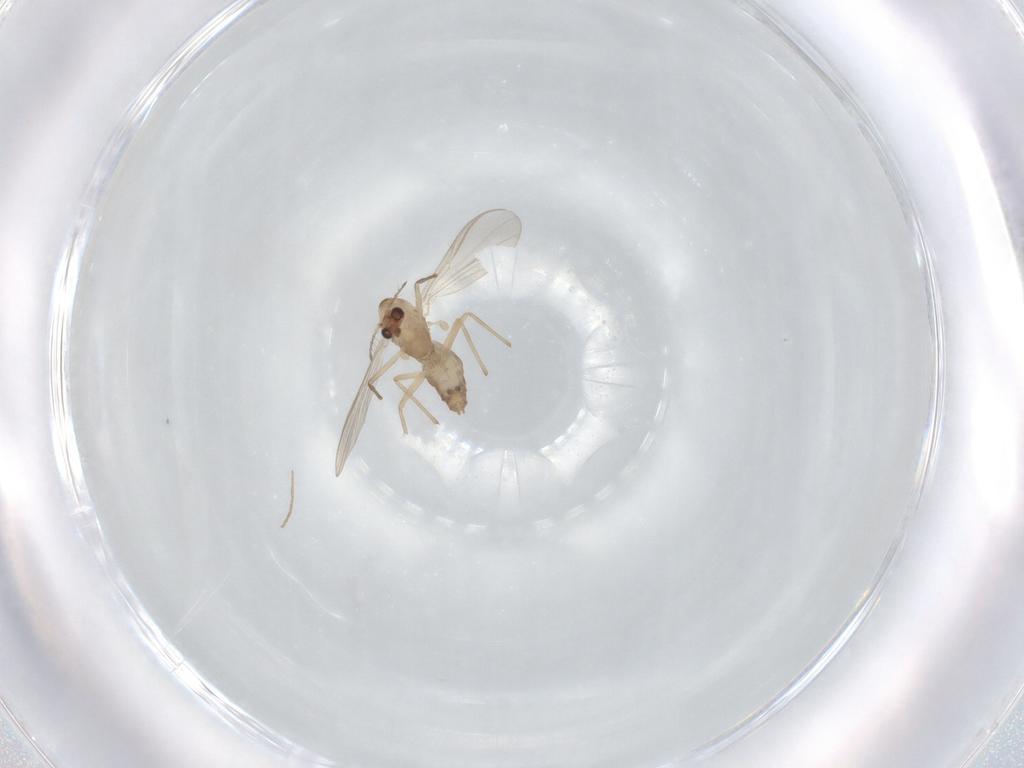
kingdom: Animalia
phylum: Arthropoda
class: Insecta
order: Diptera
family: Chironomidae
